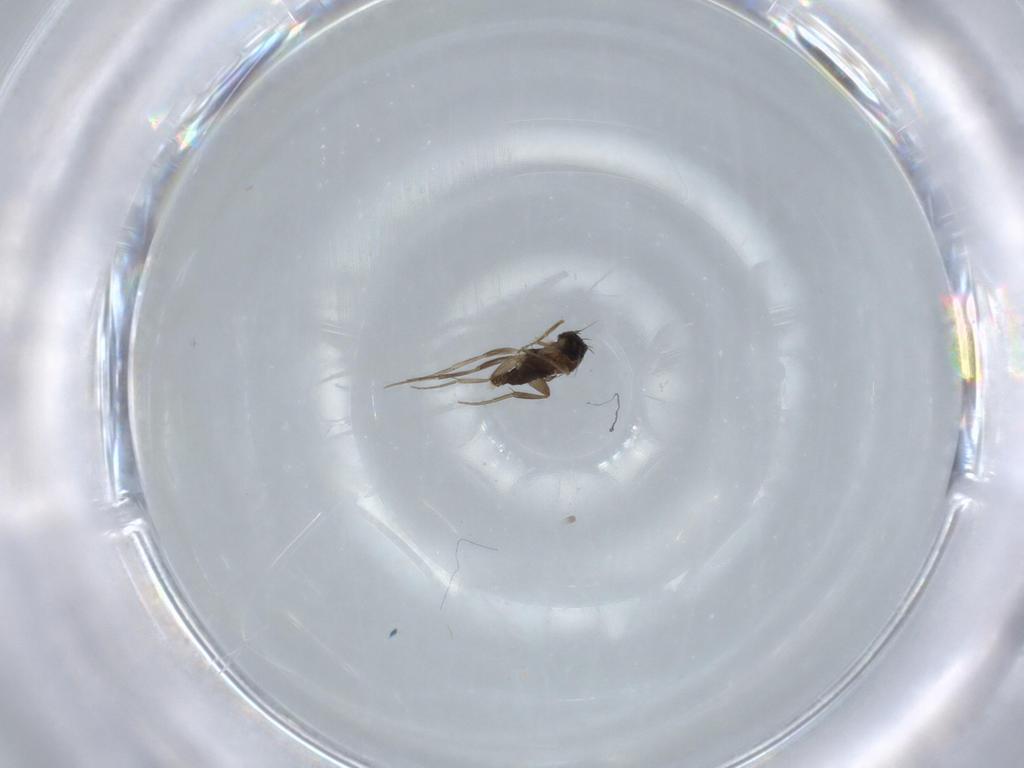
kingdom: Animalia
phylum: Arthropoda
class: Insecta
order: Diptera
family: Phoridae
